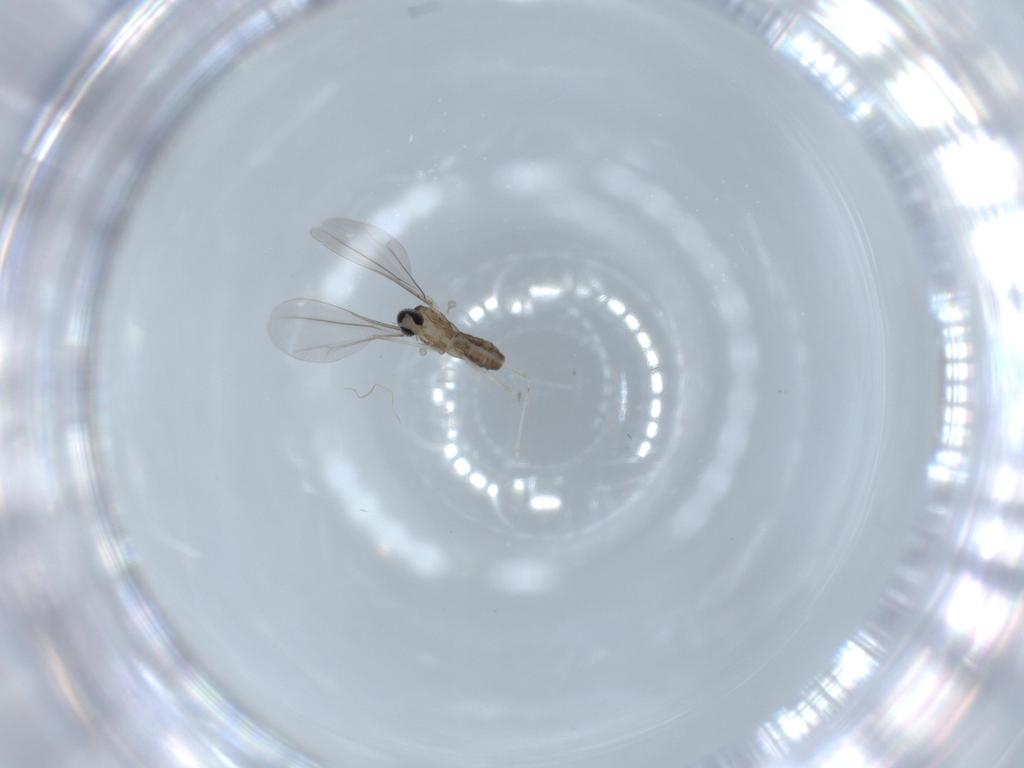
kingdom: Animalia
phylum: Arthropoda
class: Insecta
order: Diptera
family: Cecidomyiidae
